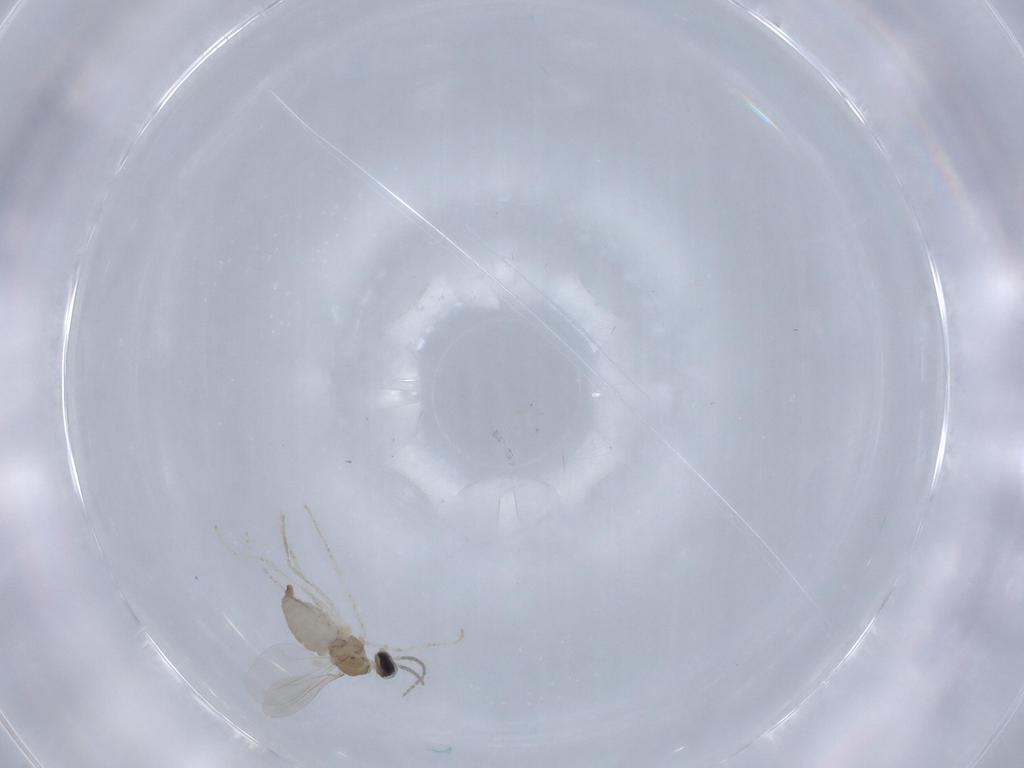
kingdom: Animalia
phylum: Arthropoda
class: Insecta
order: Diptera
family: Cecidomyiidae
